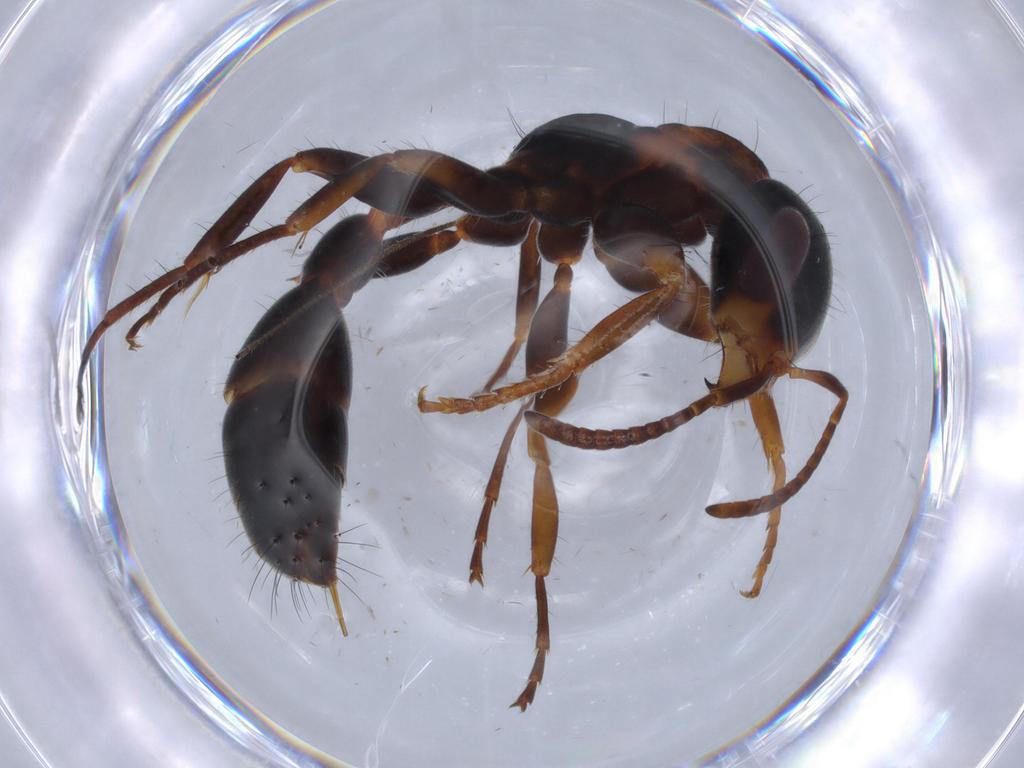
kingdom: Animalia
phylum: Arthropoda
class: Insecta
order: Hymenoptera
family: Formicidae
